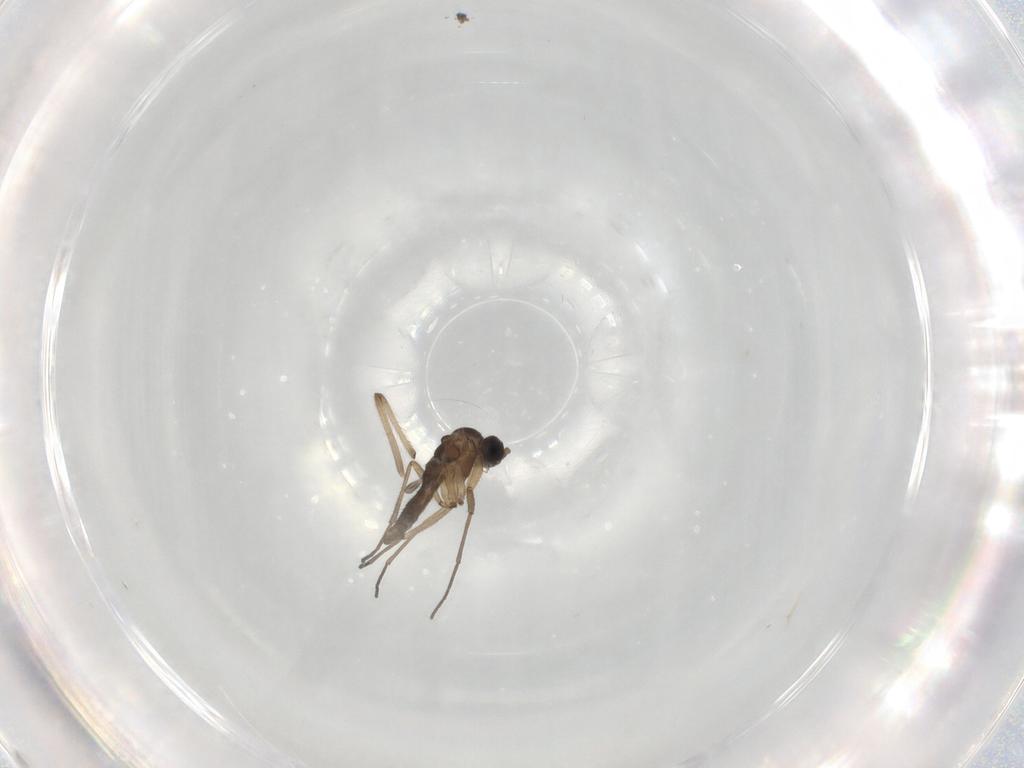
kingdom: Animalia
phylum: Arthropoda
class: Insecta
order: Diptera
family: Sciaridae
